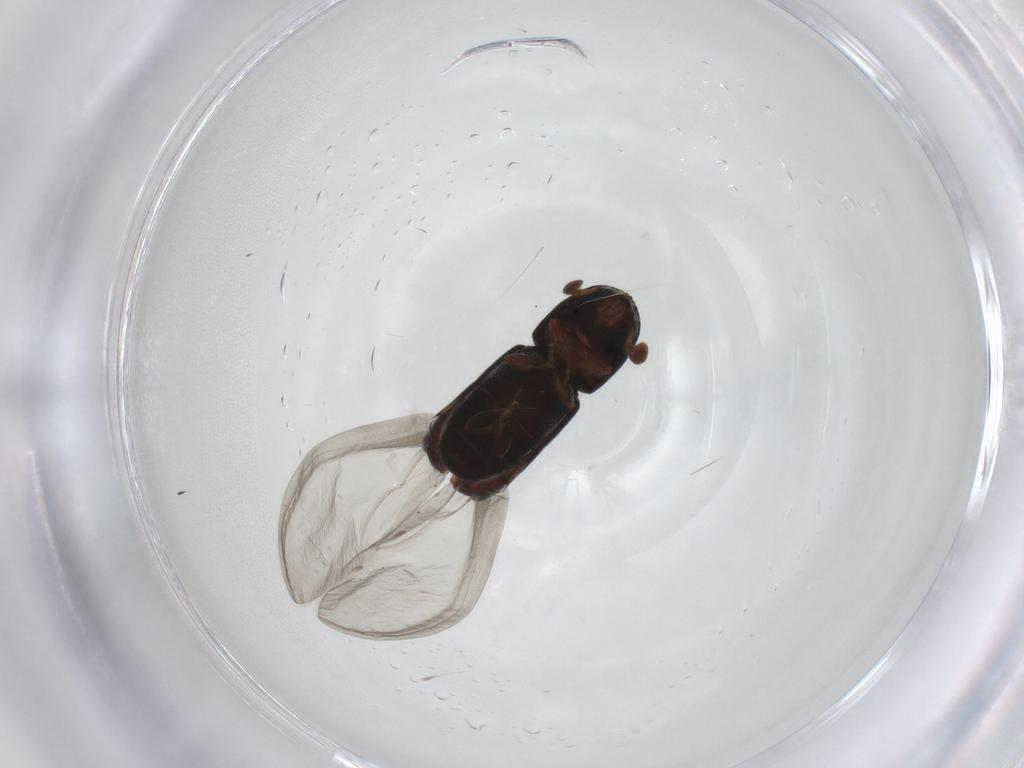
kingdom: Animalia
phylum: Arthropoda
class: Insecta
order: Coleoptera
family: Curculionidae
